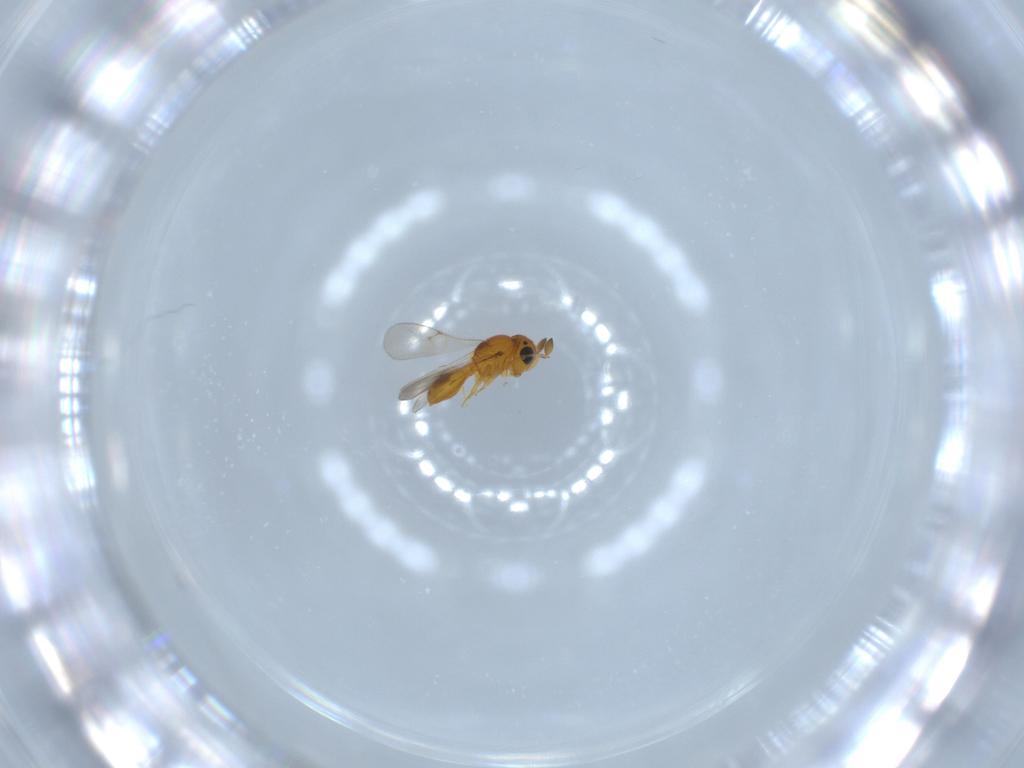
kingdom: Animalia
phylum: Arthropoda
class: Insecta
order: Hymenoptera
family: Scelionidae
